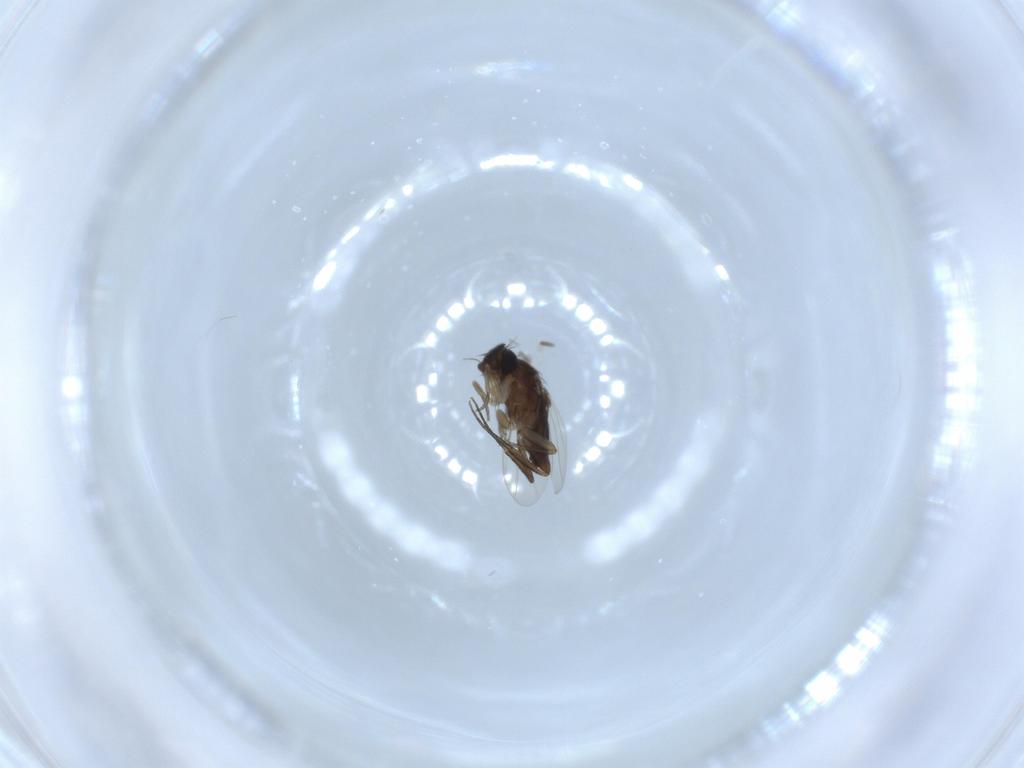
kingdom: Animalia
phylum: Arthropoda
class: Insecta
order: Diptera
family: Phoridae
